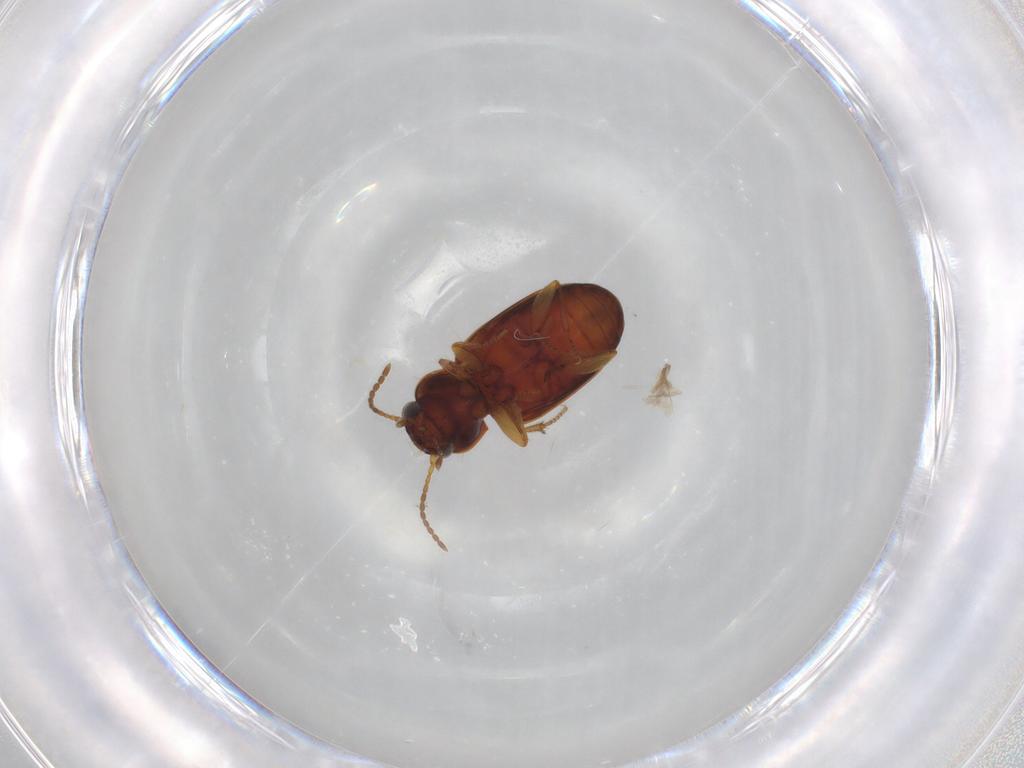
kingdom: Animalia
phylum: Arthropoda
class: Insecta
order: Coleoptera
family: Carabidae
